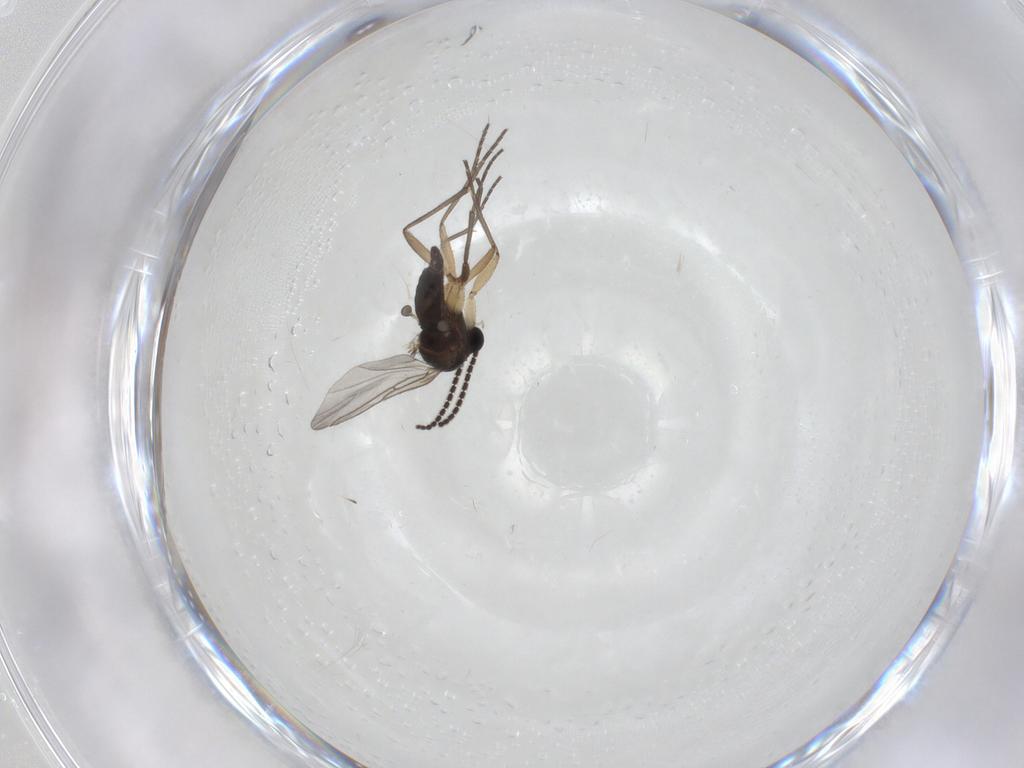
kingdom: Animalia
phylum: Arthropoda
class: Insecta
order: Diptera
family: Sciaridae
